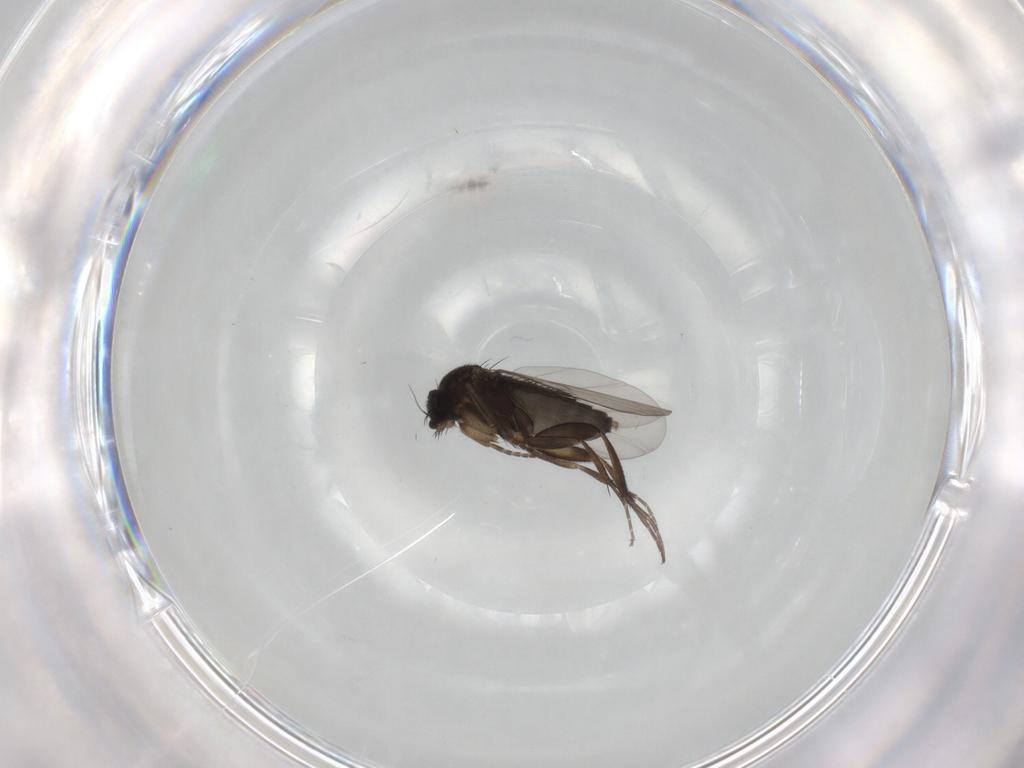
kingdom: Animalia
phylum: Arthropoda
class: Insecta
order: Diptera
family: Phoridae
